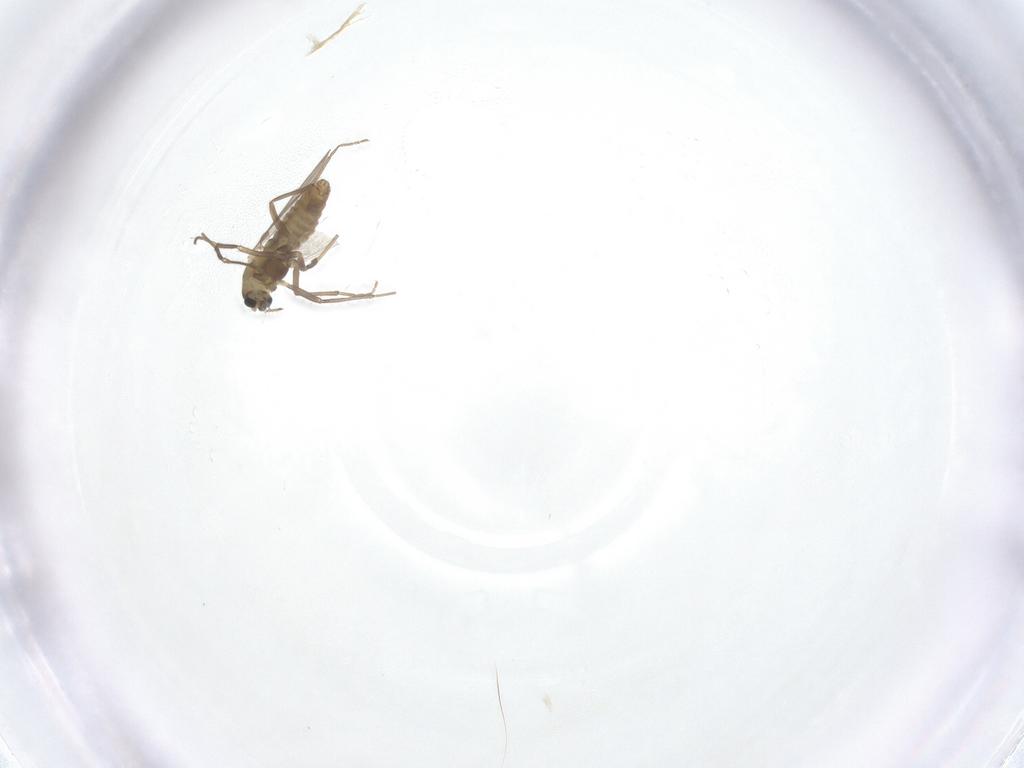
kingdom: Animalia
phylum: Arthropoda
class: Insecta
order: Diptera
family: Chironomidae
